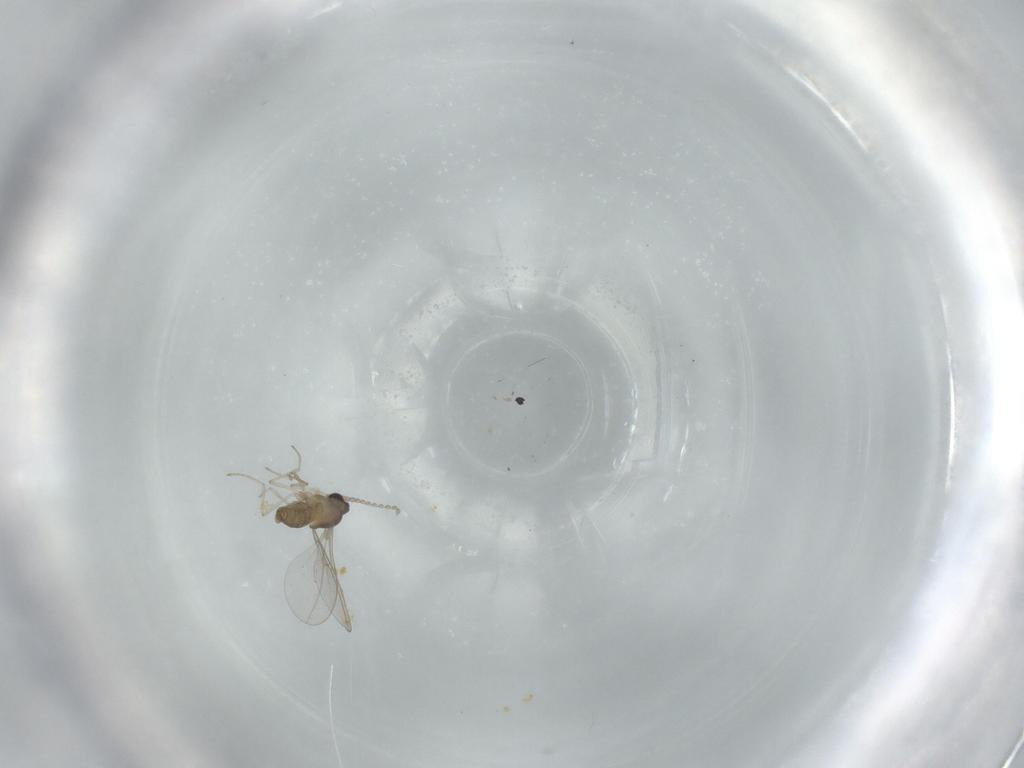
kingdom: Animalia
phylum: Arthropoda
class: Insecta
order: Diptera
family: Cecidomyiidae
